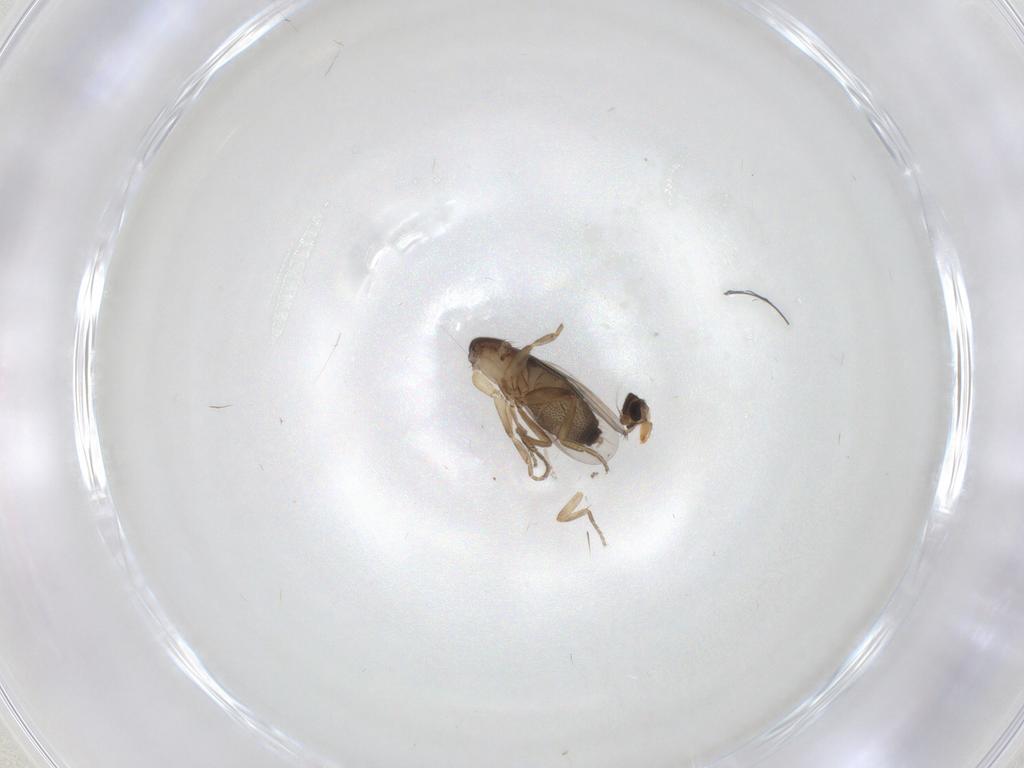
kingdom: Animalia
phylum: Arthropoda
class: Insecta
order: Diptera
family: Phoridae
